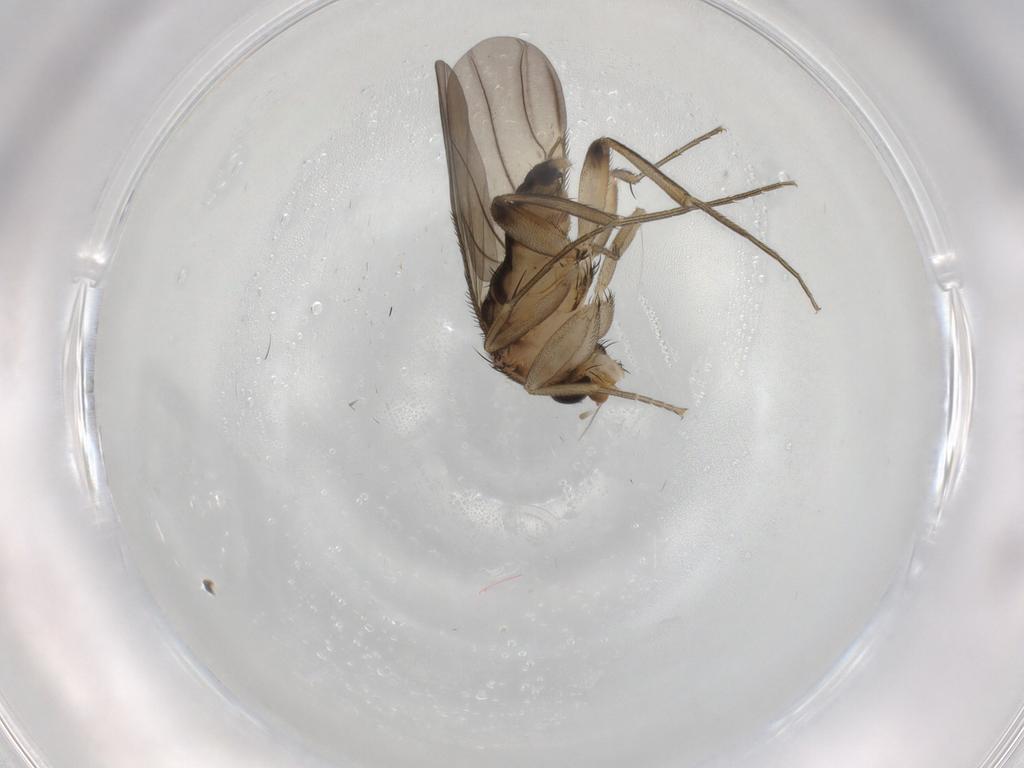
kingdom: Animalia
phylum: Arthropoda
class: Insecta
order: Diptera
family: Phoridae
